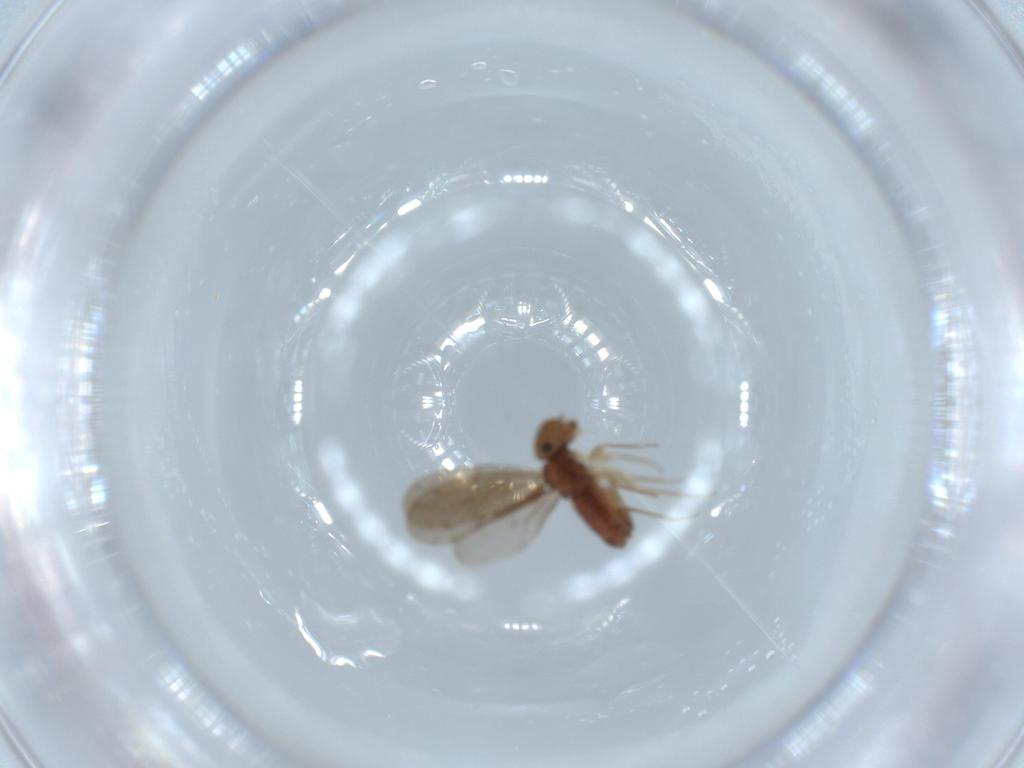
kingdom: Animalia
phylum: Arthropoda
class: Insecta
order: Psocodea
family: Ectopsocidae
